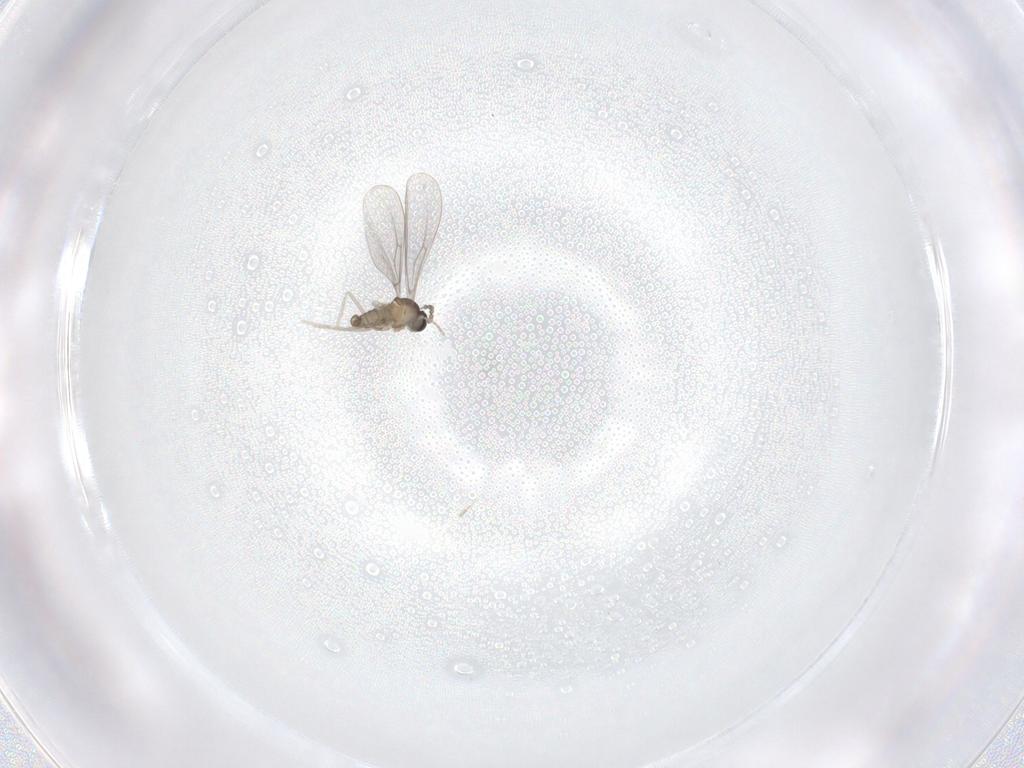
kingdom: Animalia
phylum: Arthropoda
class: Insecta
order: Diptera
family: Cecidomyiidae
